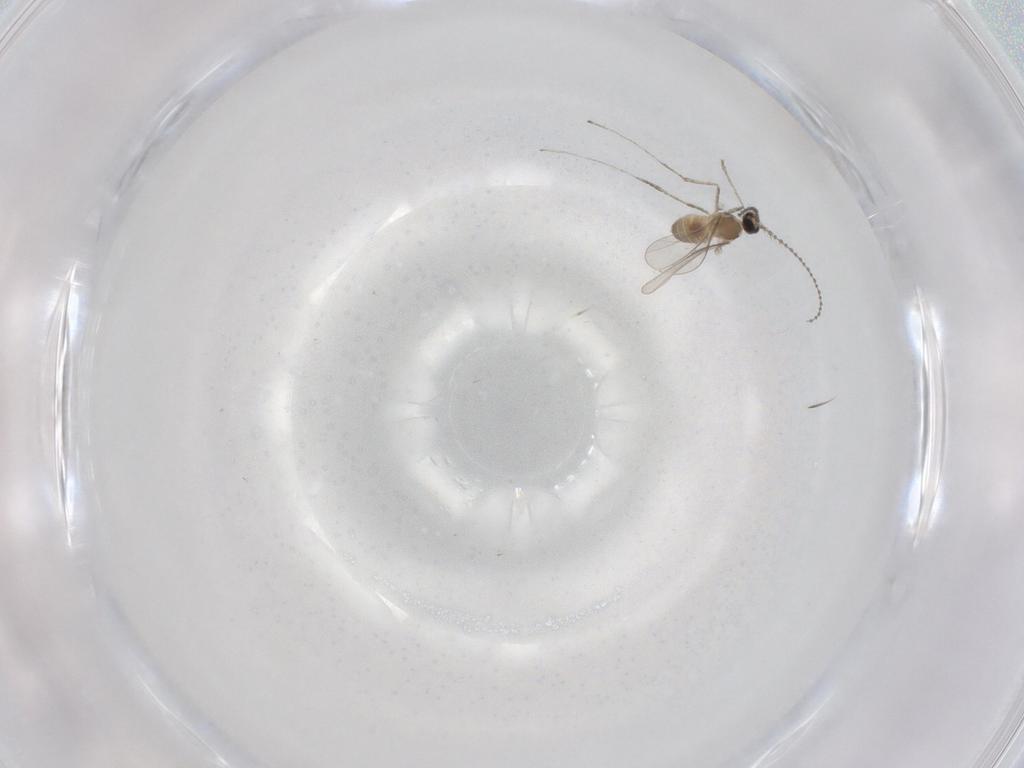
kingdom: Animalia
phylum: Arthropoda
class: Insecta
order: Diptera
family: Cecidomyiidae
